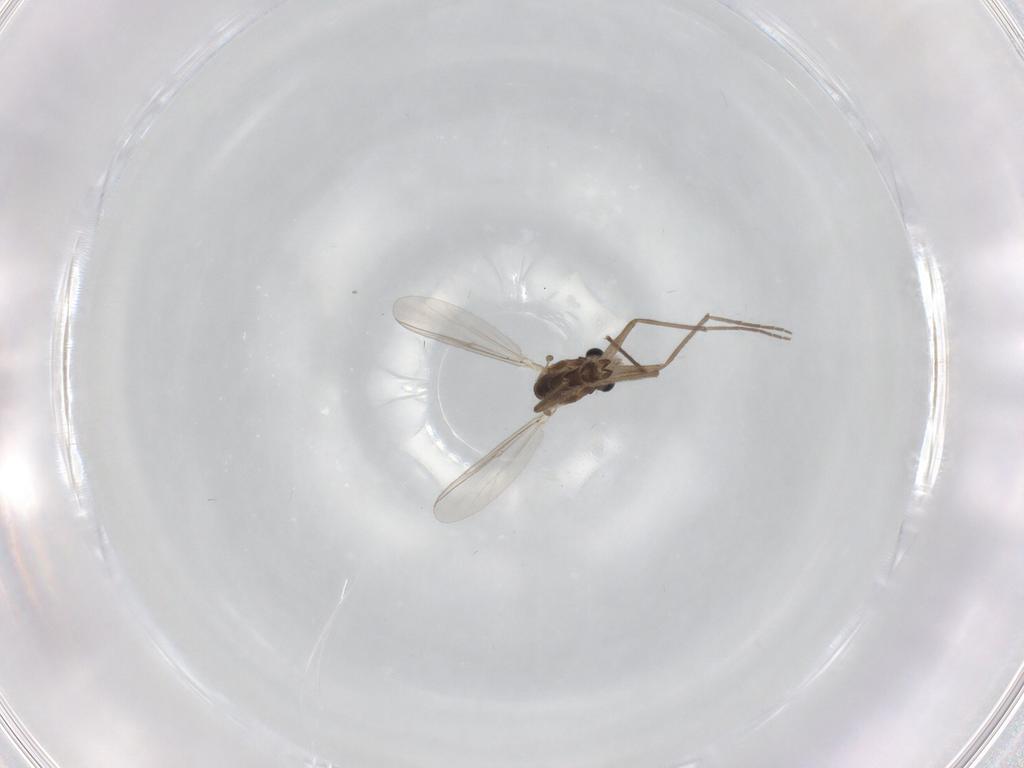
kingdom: Animalia
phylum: Arthropoda
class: Insecta
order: Diptera
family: Chironomidae
